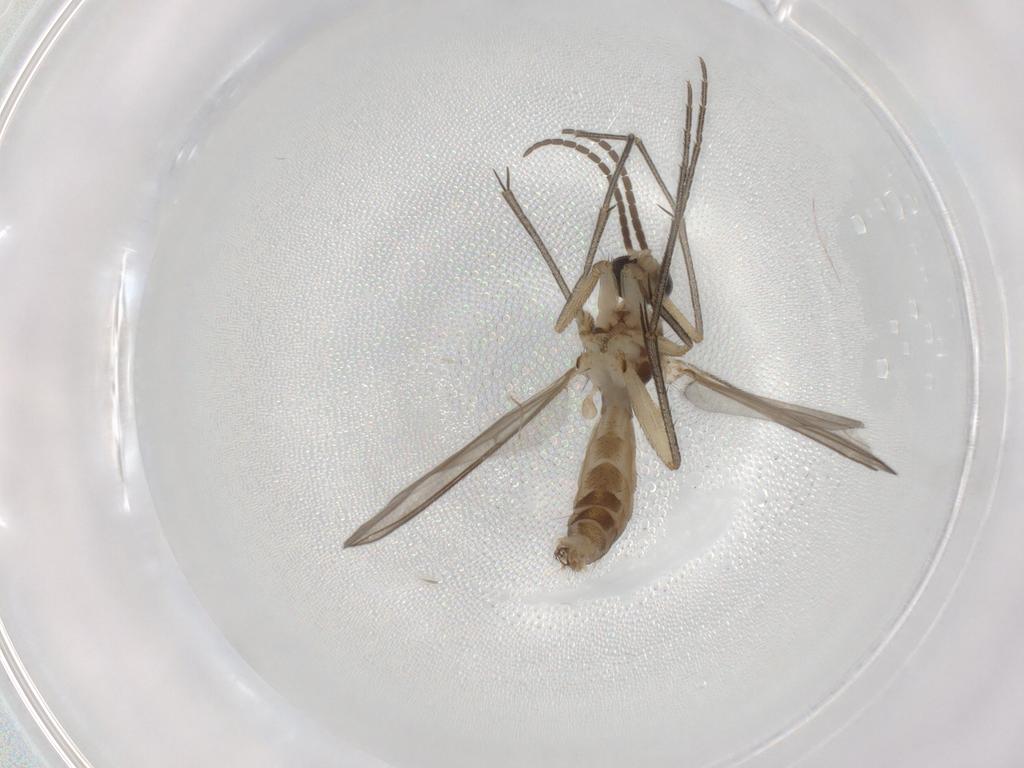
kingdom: Animalia
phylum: Arthropoda
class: Insecta
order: Diptera
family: Mycetophilidae
